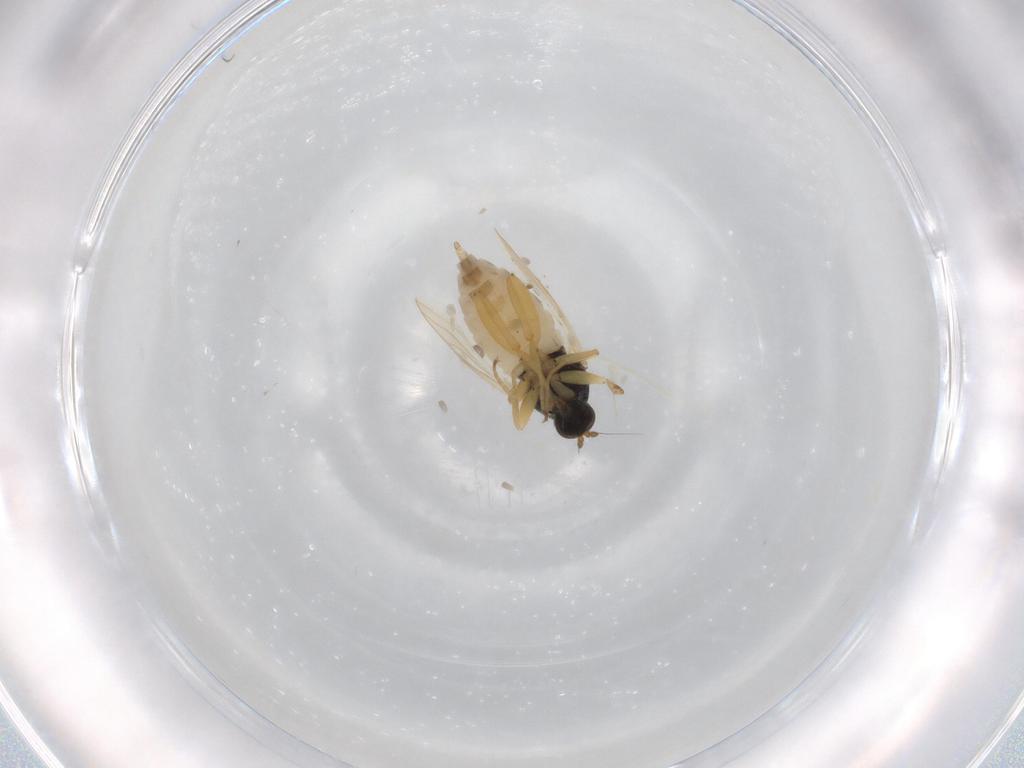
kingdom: Animalia
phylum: Arthropoda
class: Insecta
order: Diptera
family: Hybotidae
